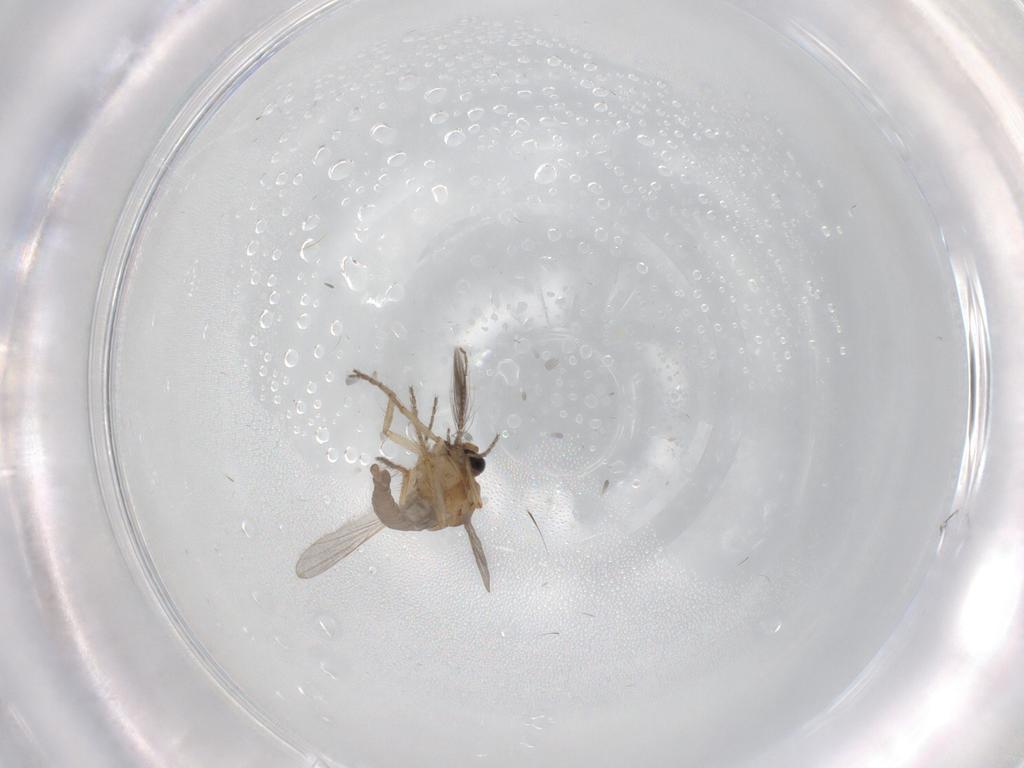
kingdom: Animalia
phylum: Arthropoda
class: Insecta
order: Diptera
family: Ceratopogonidae
